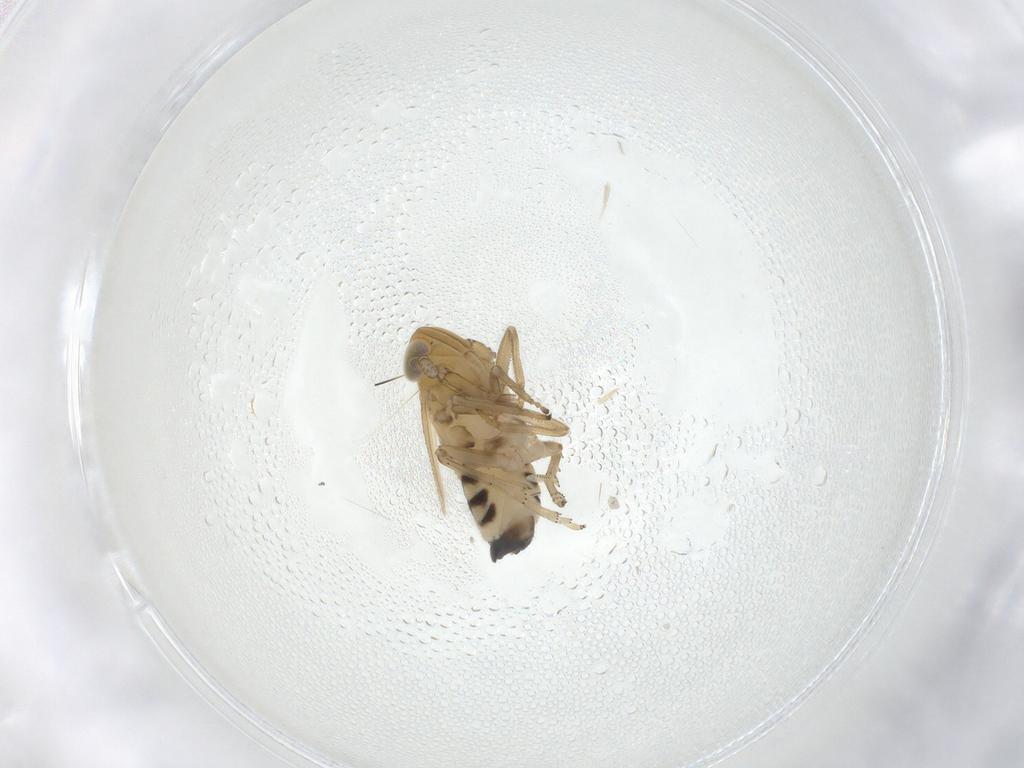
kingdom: Animalia
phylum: Arthropoda
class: Insecta
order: Hemiptera
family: Delphacidae
